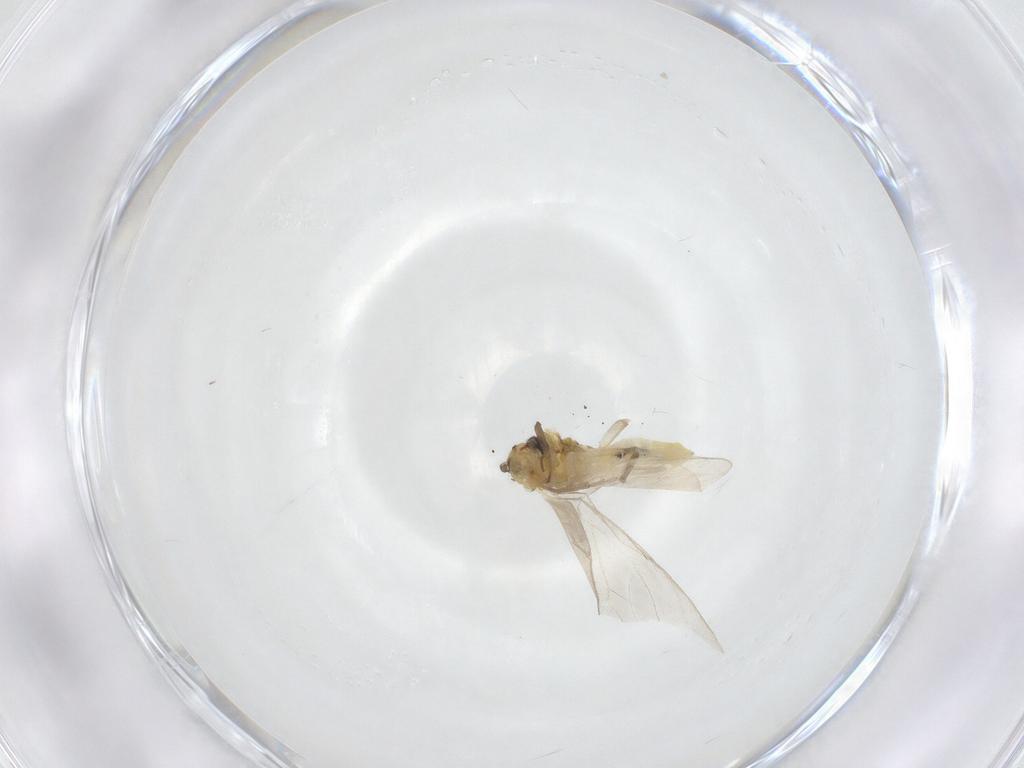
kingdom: Animalia
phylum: Arthropoda
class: Insecta
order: Psocodea
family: Caeciliusidae
